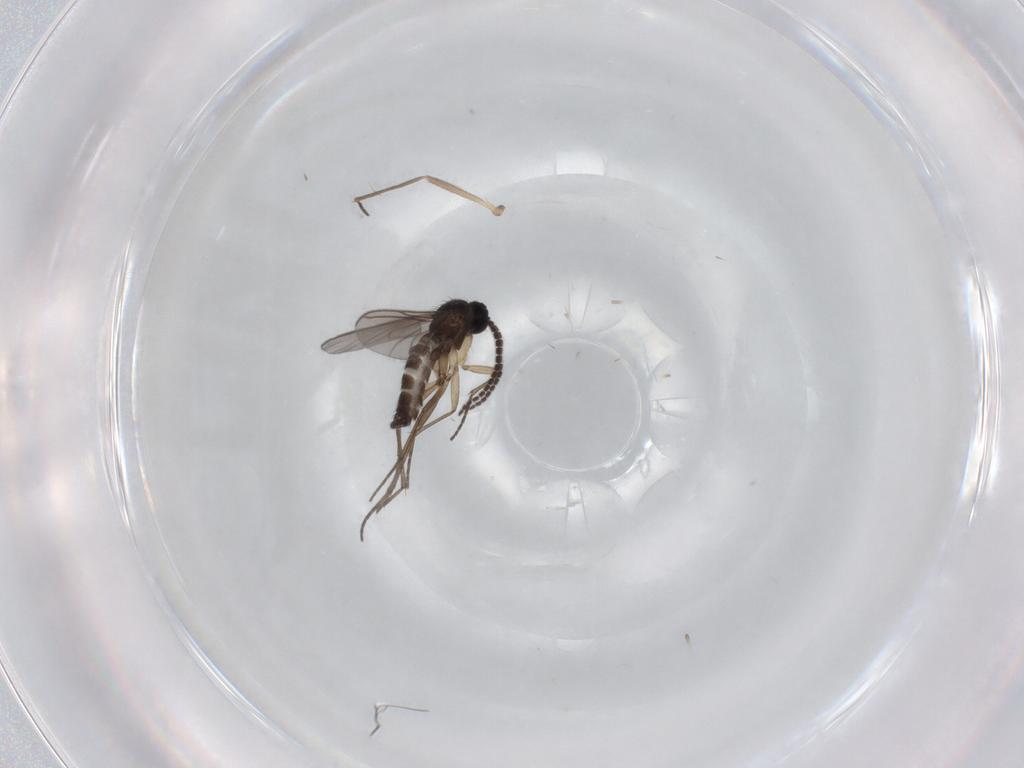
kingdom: Animalia
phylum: Arthropoda
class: Insecta
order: Diptera
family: Sciaridae
